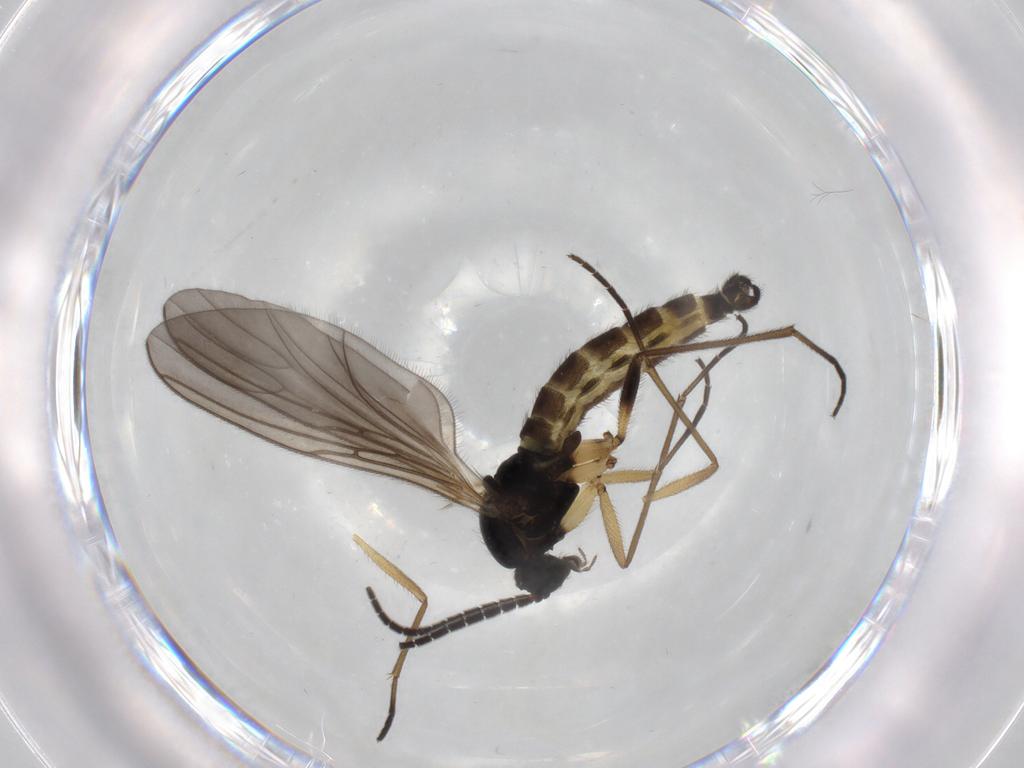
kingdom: Animalia
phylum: Arthropoda
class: Insecta
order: Diptera
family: Sciaridae
